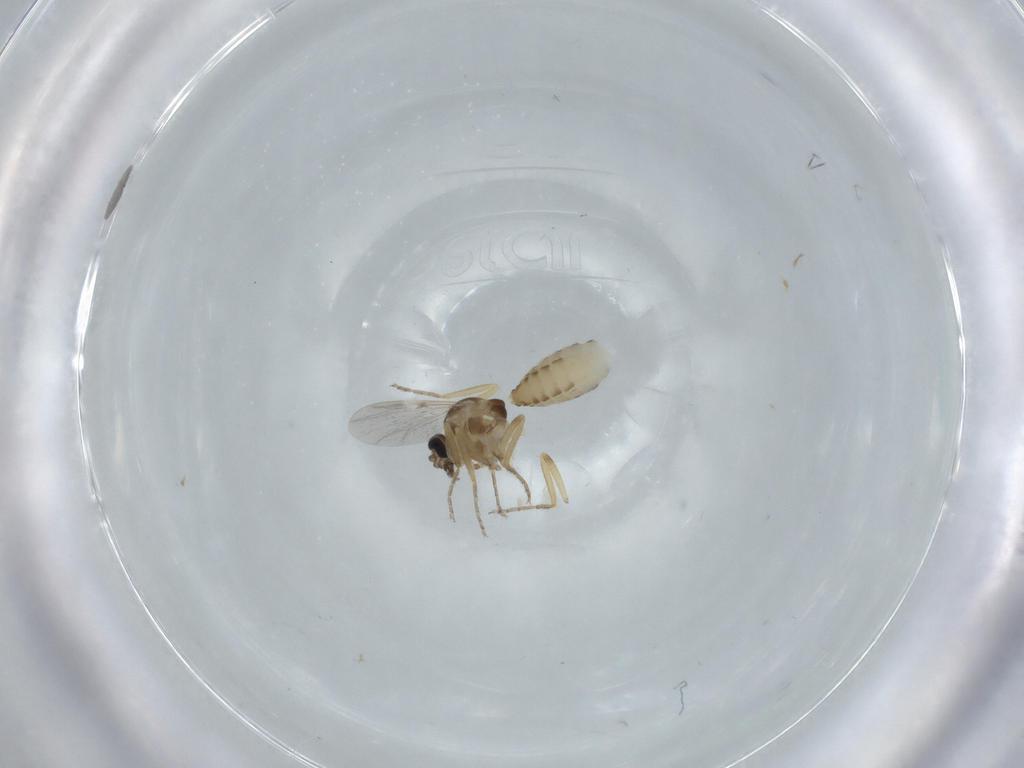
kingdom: Animalia
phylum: Arthropoda
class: Insecta
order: Diptera
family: Ceratopogonidae
